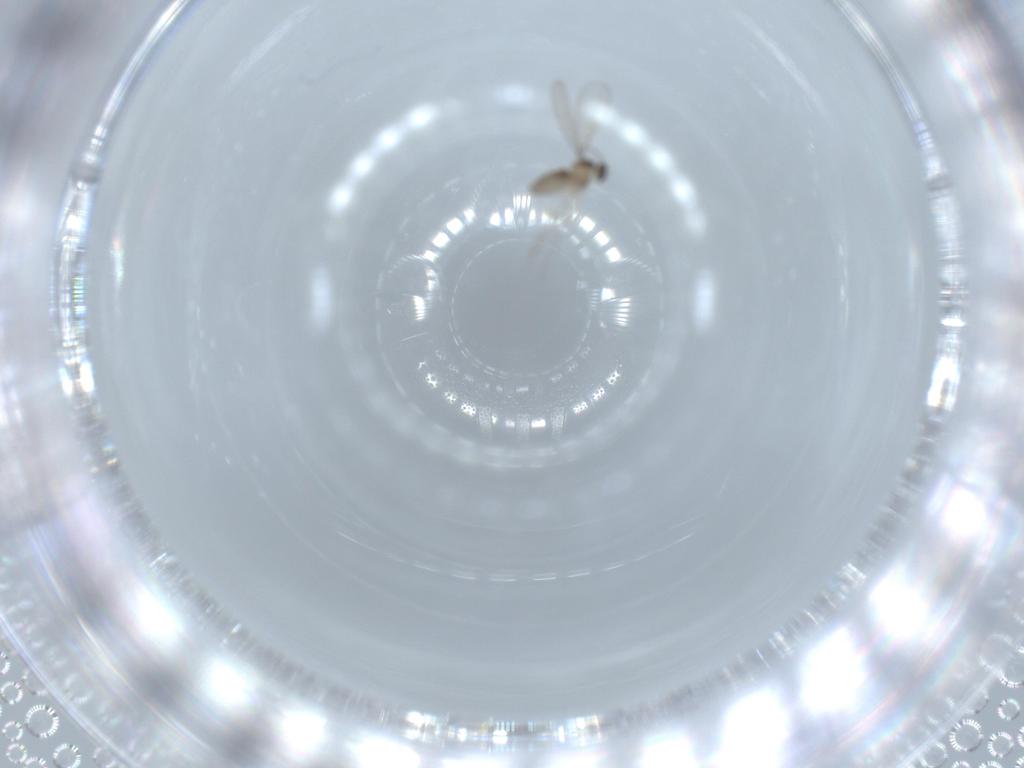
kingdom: Animalia
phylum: Arthropoda
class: Insecta
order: Diptera
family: Cecidomyiidae
